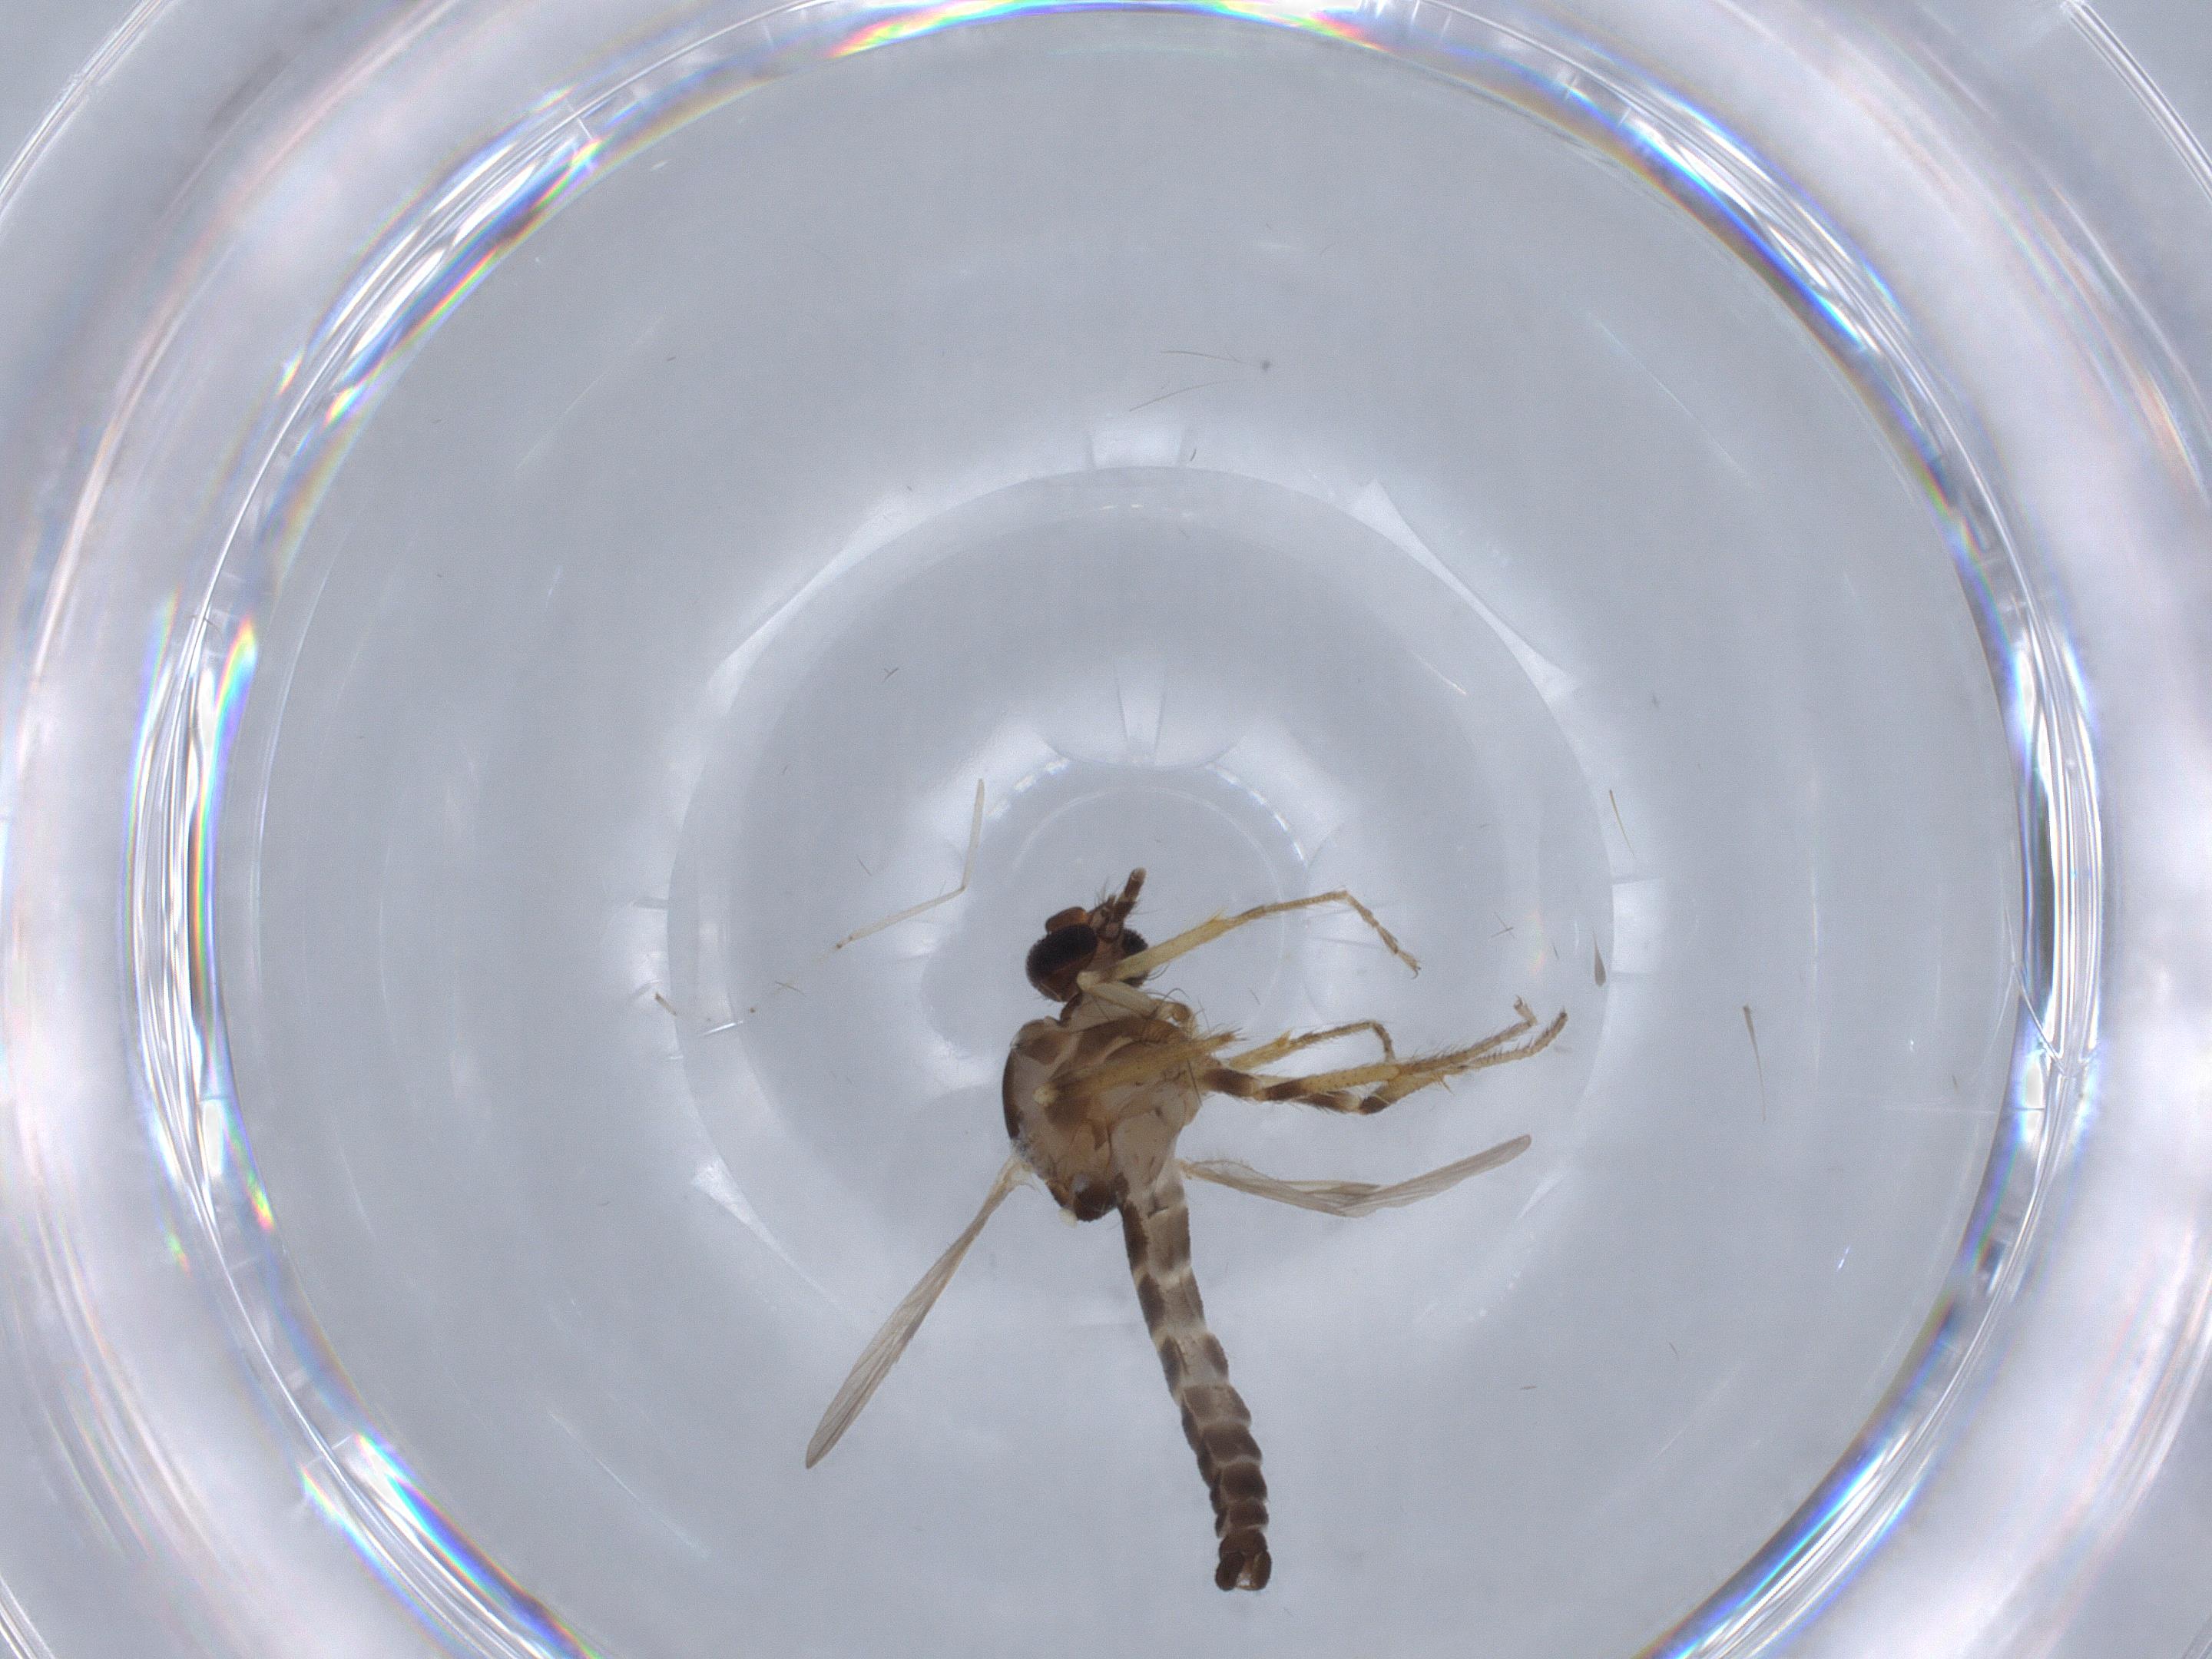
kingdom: Animalia
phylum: Arthropoda
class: Insecta
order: Diptera
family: Ceratopogonidae
